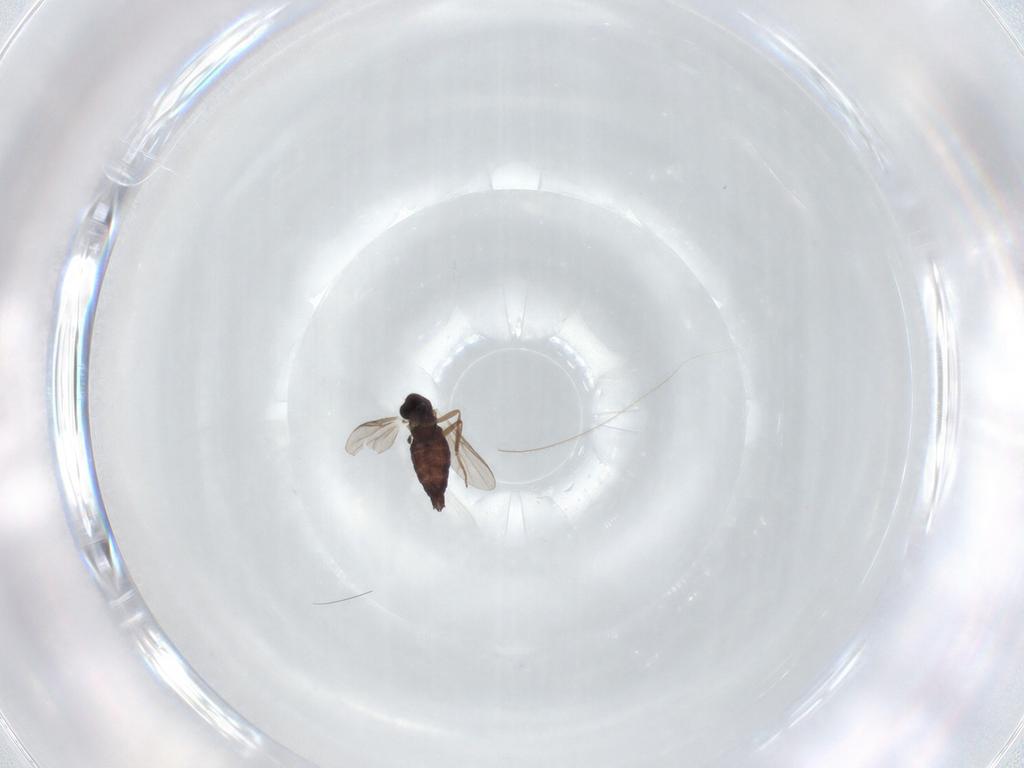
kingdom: Animalia
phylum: Arthropoda
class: Insecta
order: Diptera
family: Chironomidae
